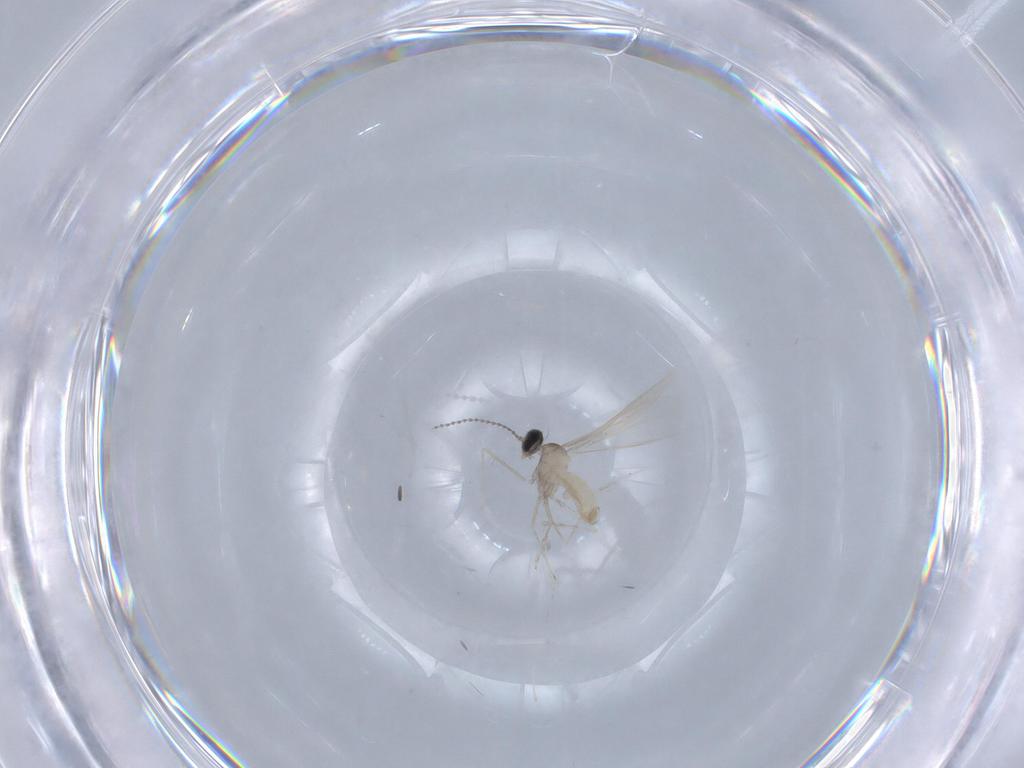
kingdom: Animalia
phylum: Arthropoda
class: Insecta
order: Diptera
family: Cecidomyiidae
